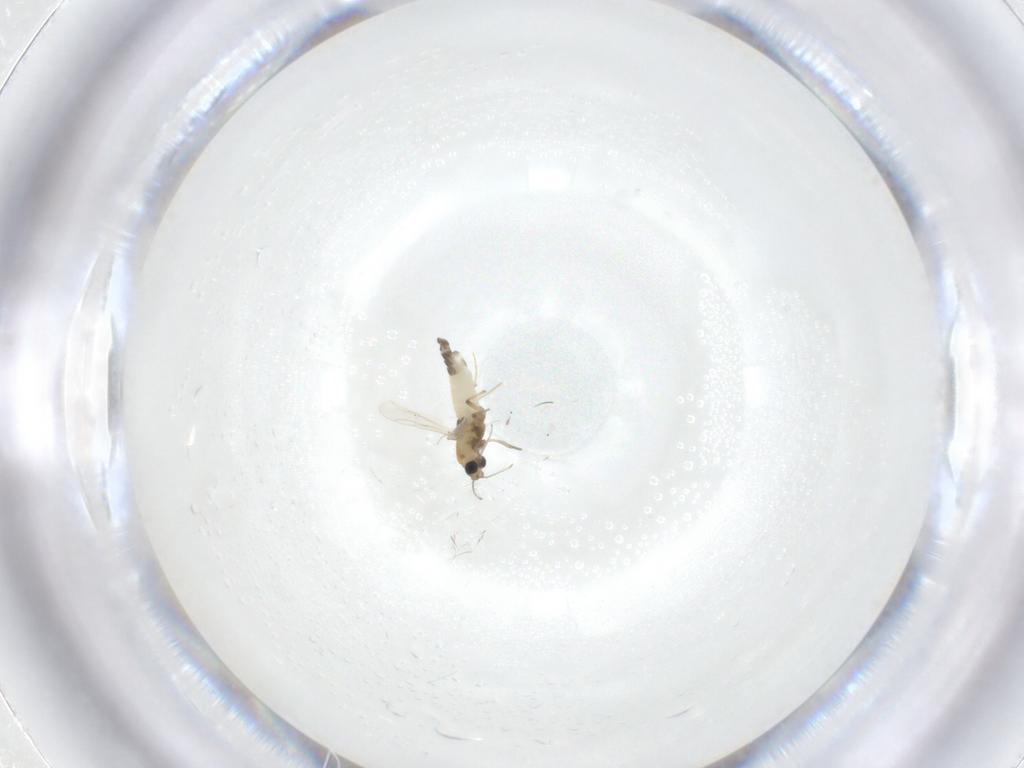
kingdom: Animalia
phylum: Arthropoda
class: Insecta
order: Diptera
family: Chironomidae
